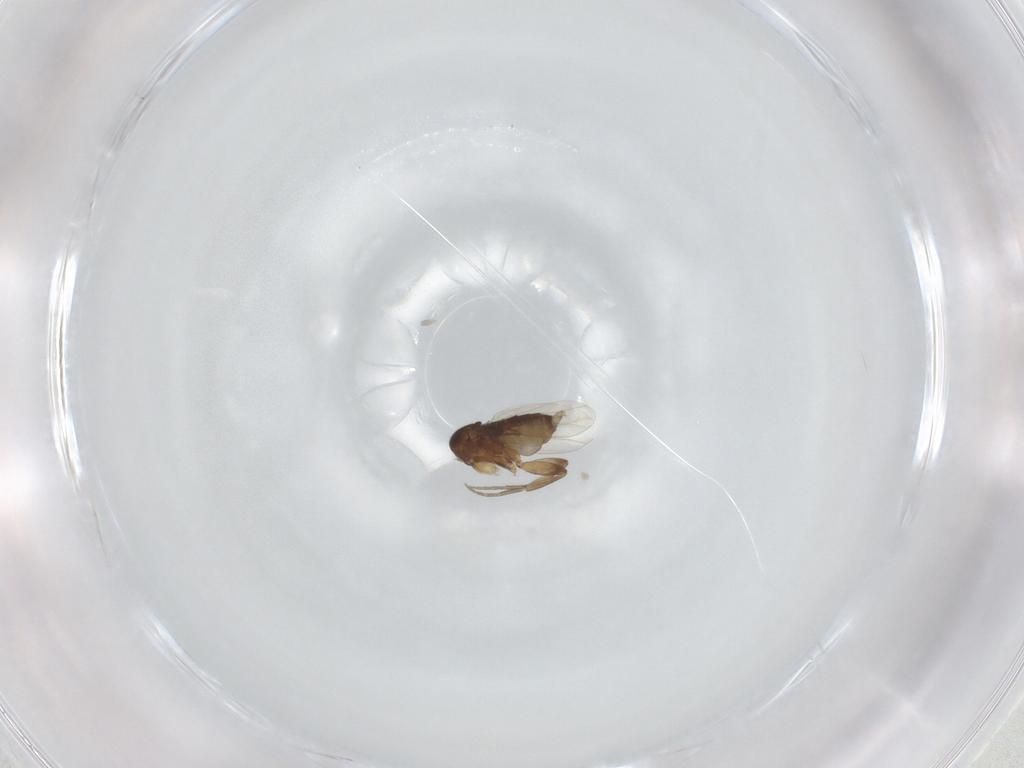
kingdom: Animalia
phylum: Arthropoda
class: Insecta
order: Diptera
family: Phoridae
